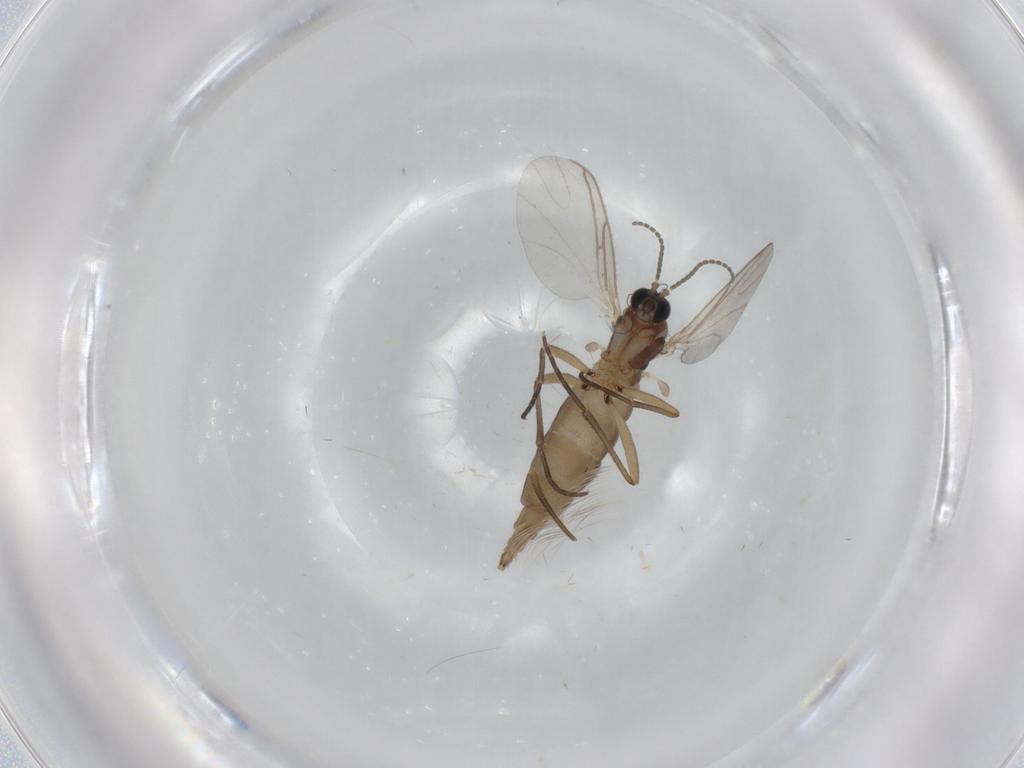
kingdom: Animalia
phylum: Arthropoda
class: Insecta
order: Diptera
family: Sciaridae
